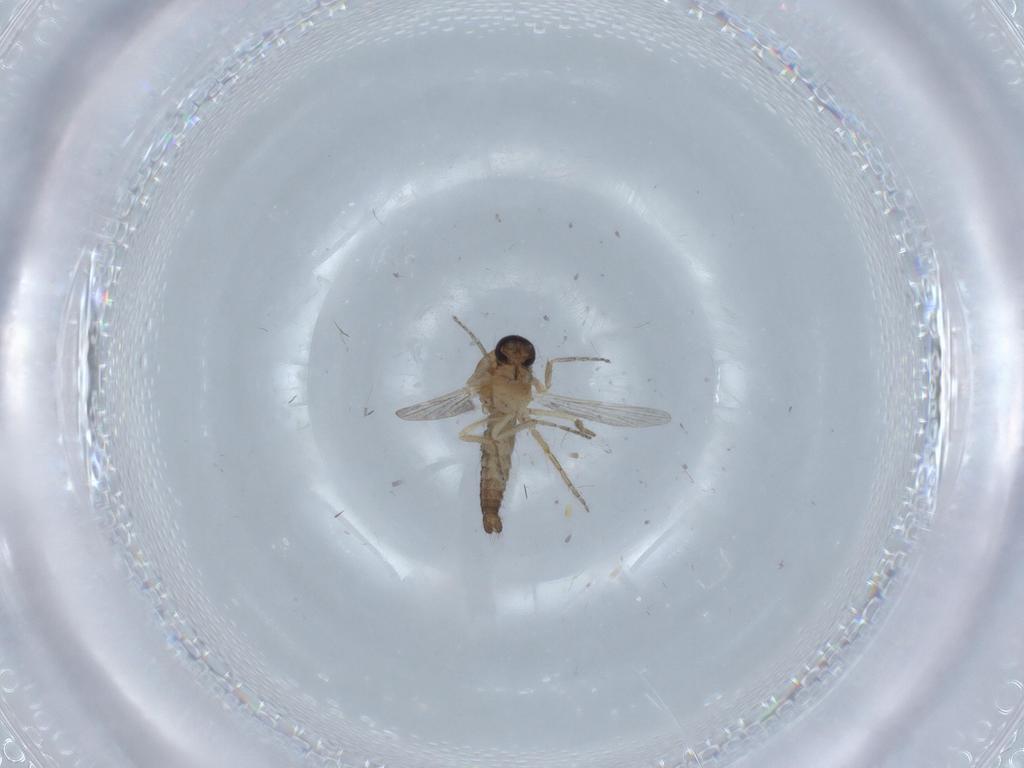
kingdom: Animalia
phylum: Arthropoda
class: Insecta
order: Diptera
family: Ceratopogonidae
